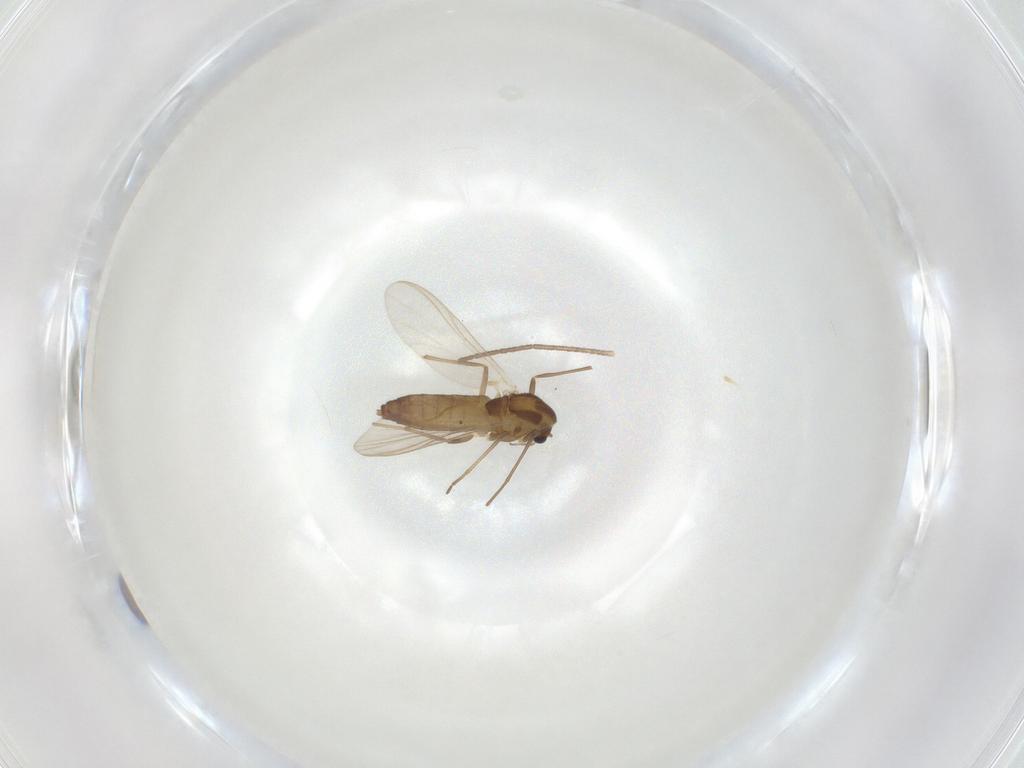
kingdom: Animalia
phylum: Arthropoda
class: Insecta
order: Diptera
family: Chironomidae
